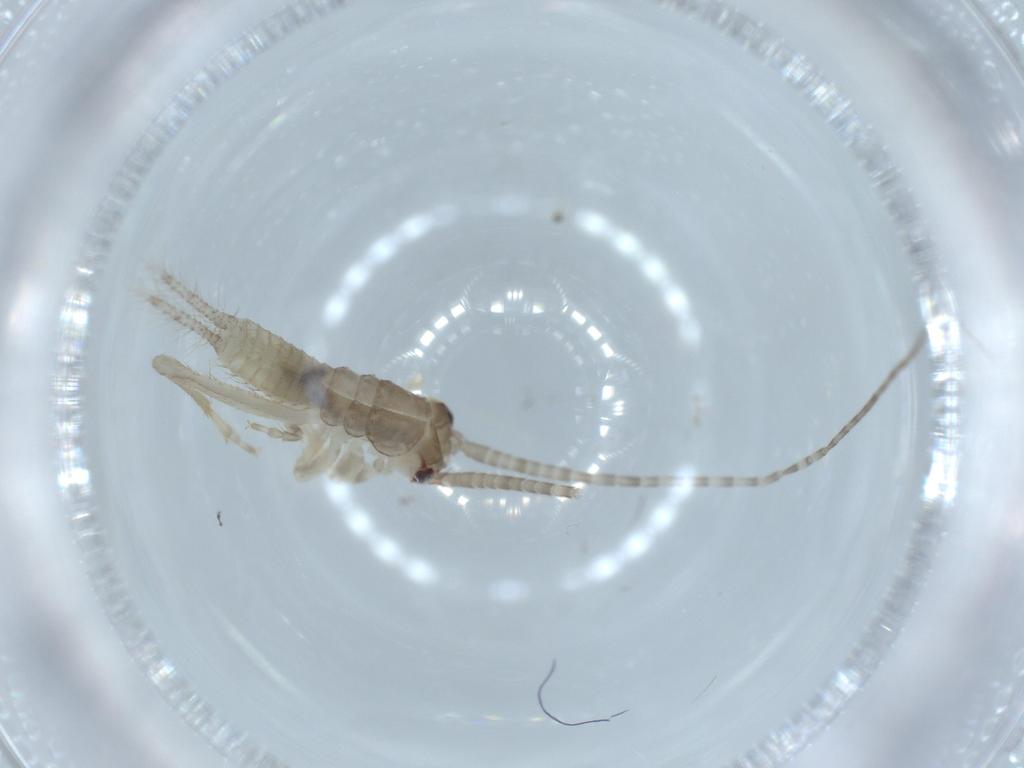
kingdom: Animalia
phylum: Arthropoda
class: Insecta
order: Orthoptera
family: Gryllidae
